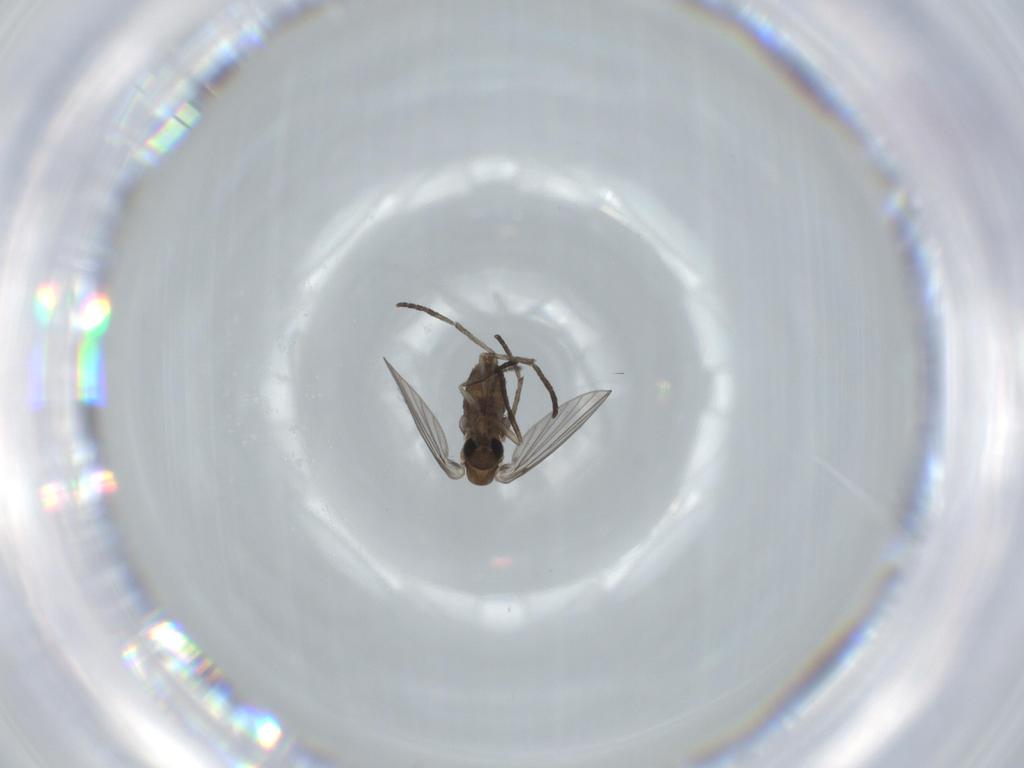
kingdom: Animalia
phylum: Arthropoda
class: Insecta
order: Diptera
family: Psychodidae
